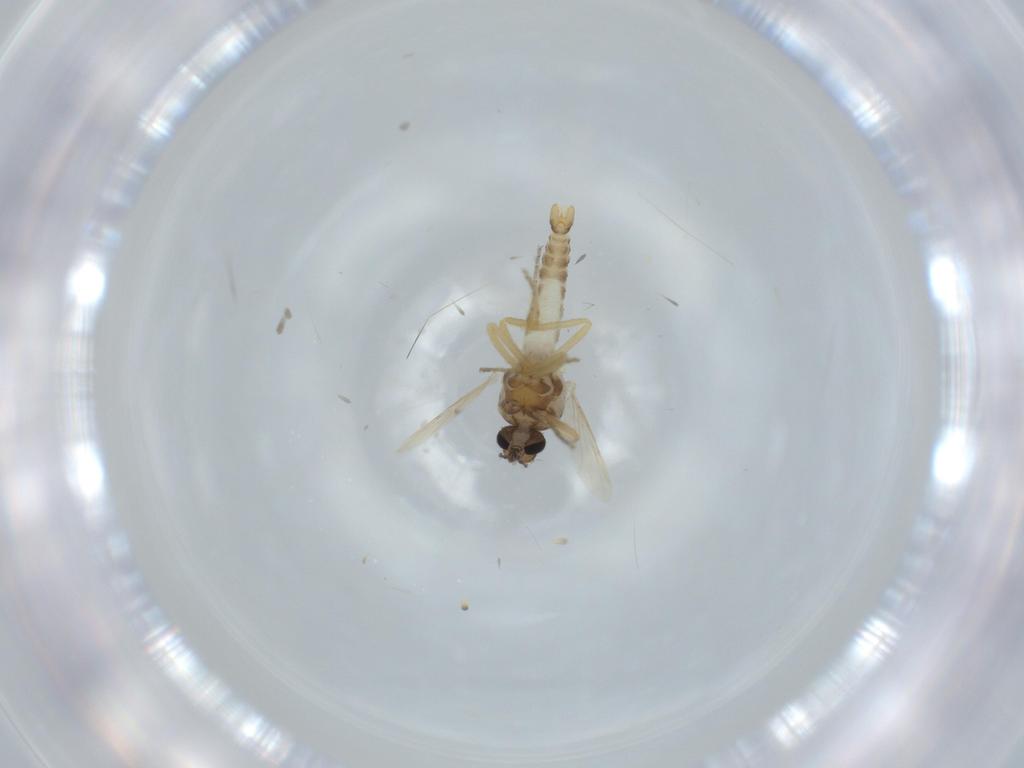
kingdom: Animalia
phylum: Arthropoda
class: Insecta
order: Diptera
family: Ceratopogonidae
